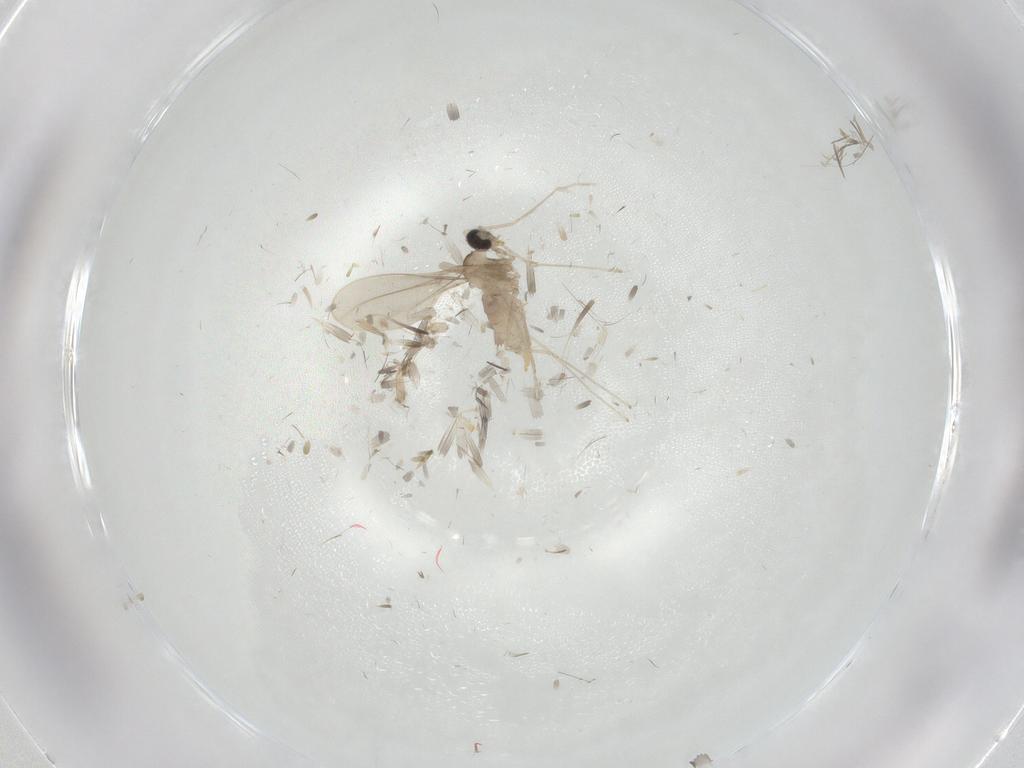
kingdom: Animalia
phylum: Arthropoda
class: Insecta
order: Diptera
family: Cecidomyiidae
